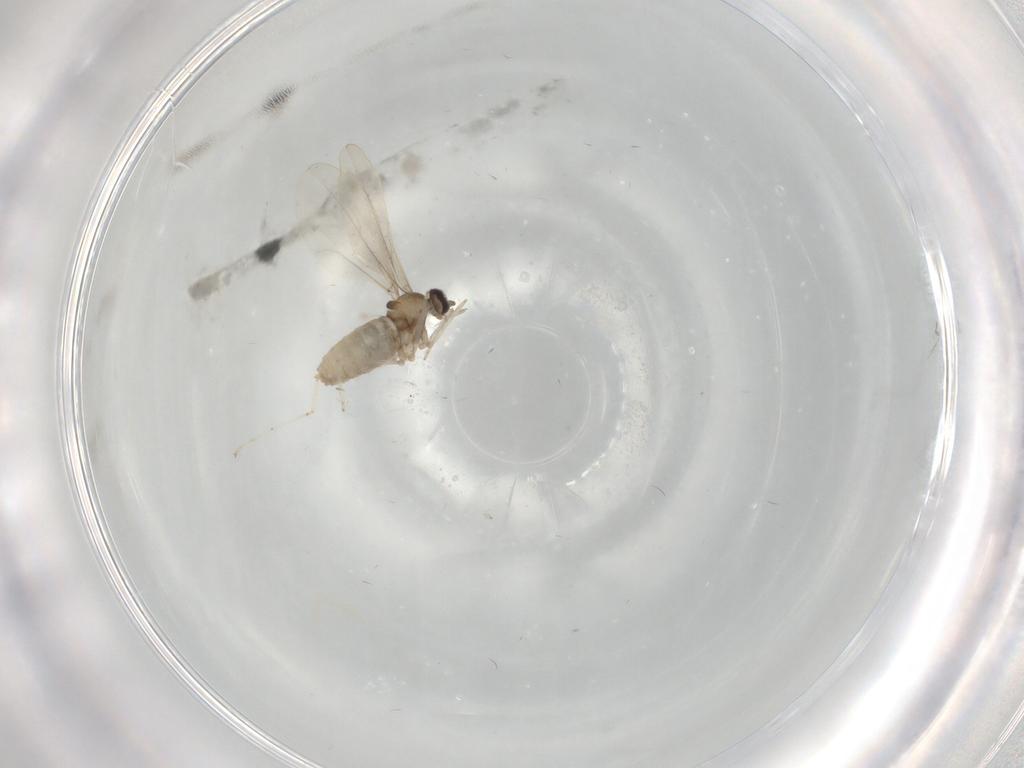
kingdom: Animalia
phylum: Arthropoda
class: Insecta
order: Diptera
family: Cecidomyiidae
